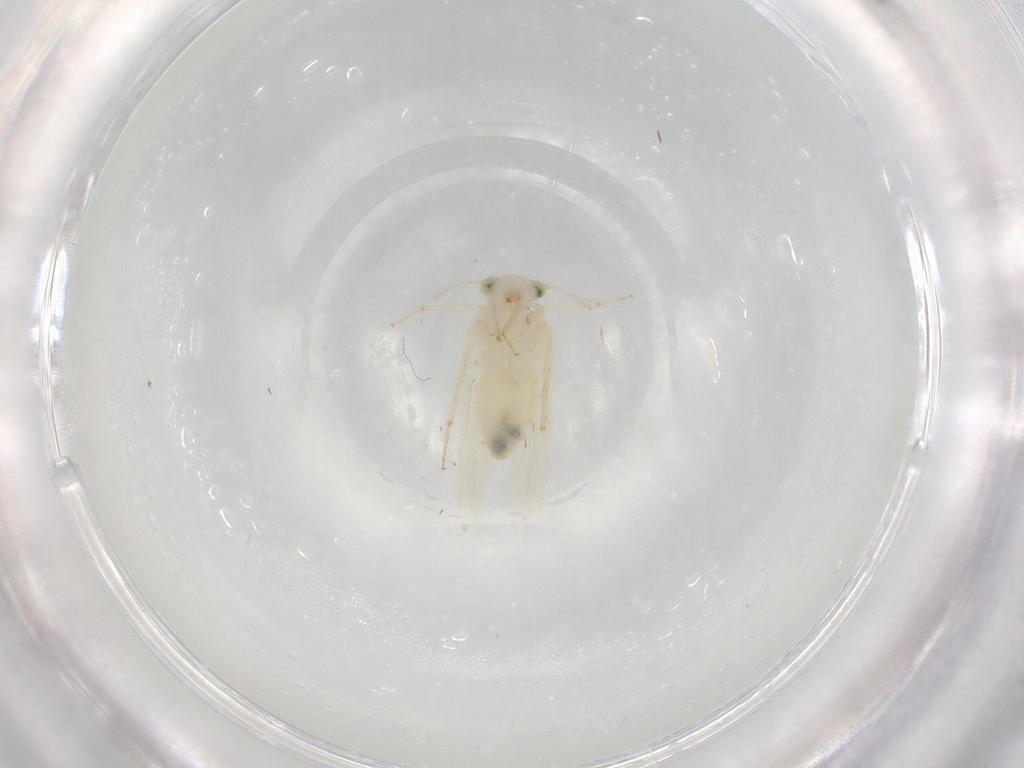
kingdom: Animalia
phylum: Arthropoda
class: Insecta
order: Psocodea
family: Lepidopsocidae
